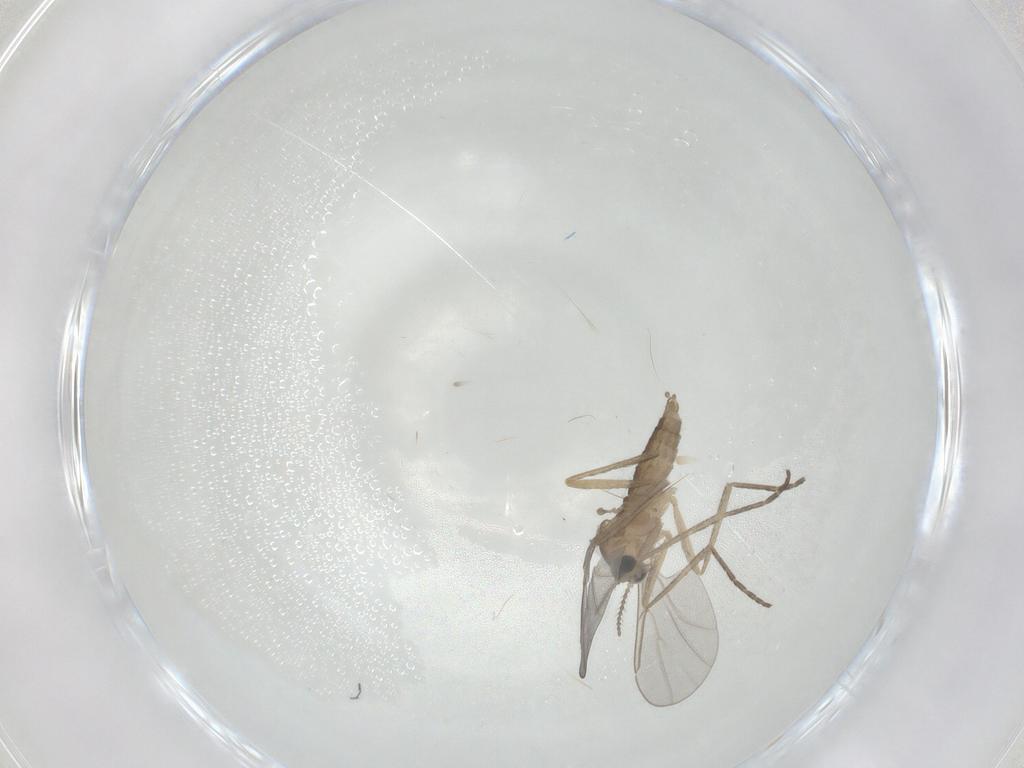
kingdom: Animalia
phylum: Arthropoda
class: Insecta
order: Diptera
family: Cecidomyiidae
